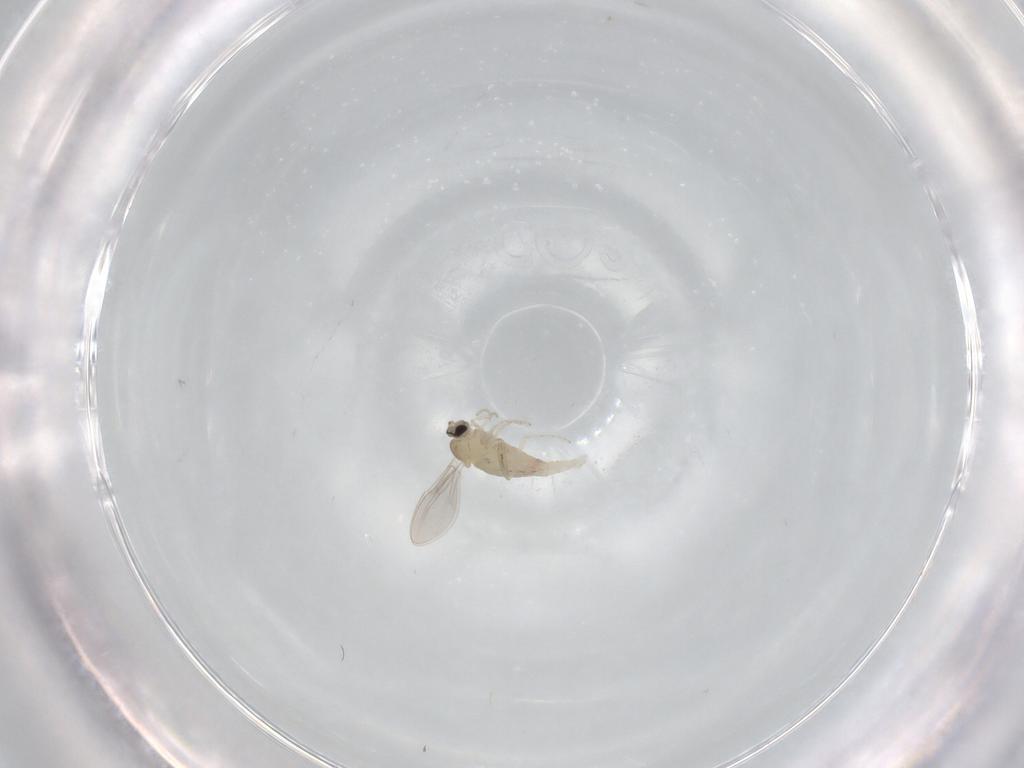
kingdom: Animalia
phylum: Arthropoda
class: Insecta
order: Diptera
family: Cecidomyiidae
